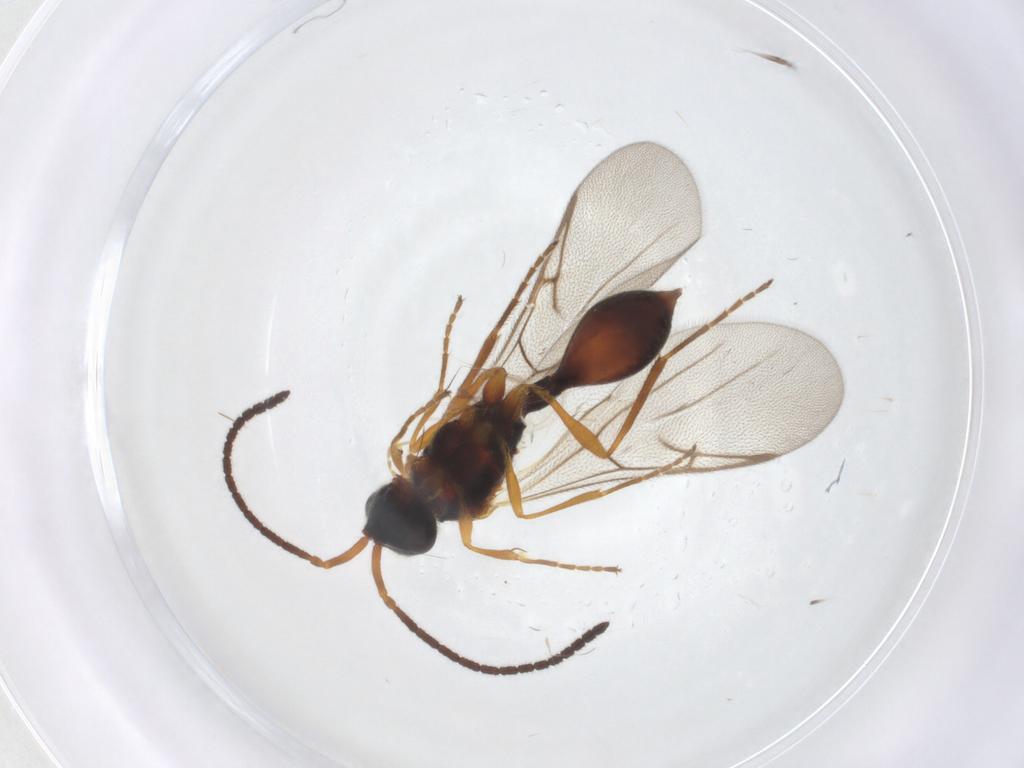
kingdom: Animalia
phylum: Arthropoda
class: Insecta
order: Hymenoptera
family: Diapriidae
